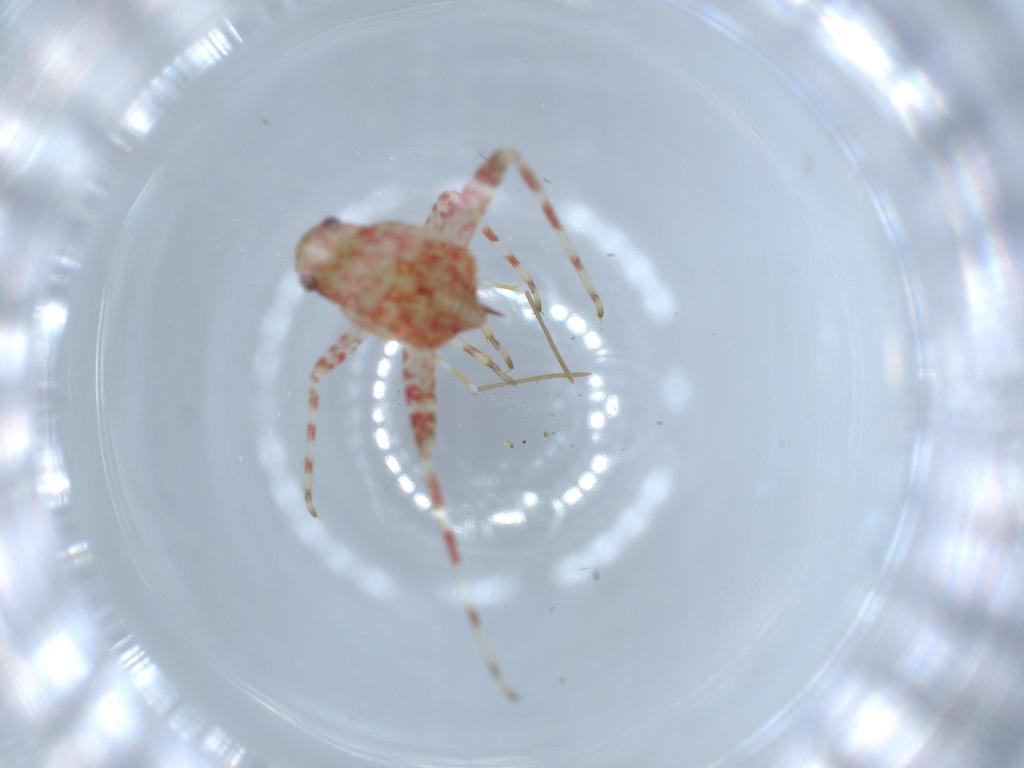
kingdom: Animalia
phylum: Arthropoda
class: Insecta
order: Hemiptera
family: Miridae
